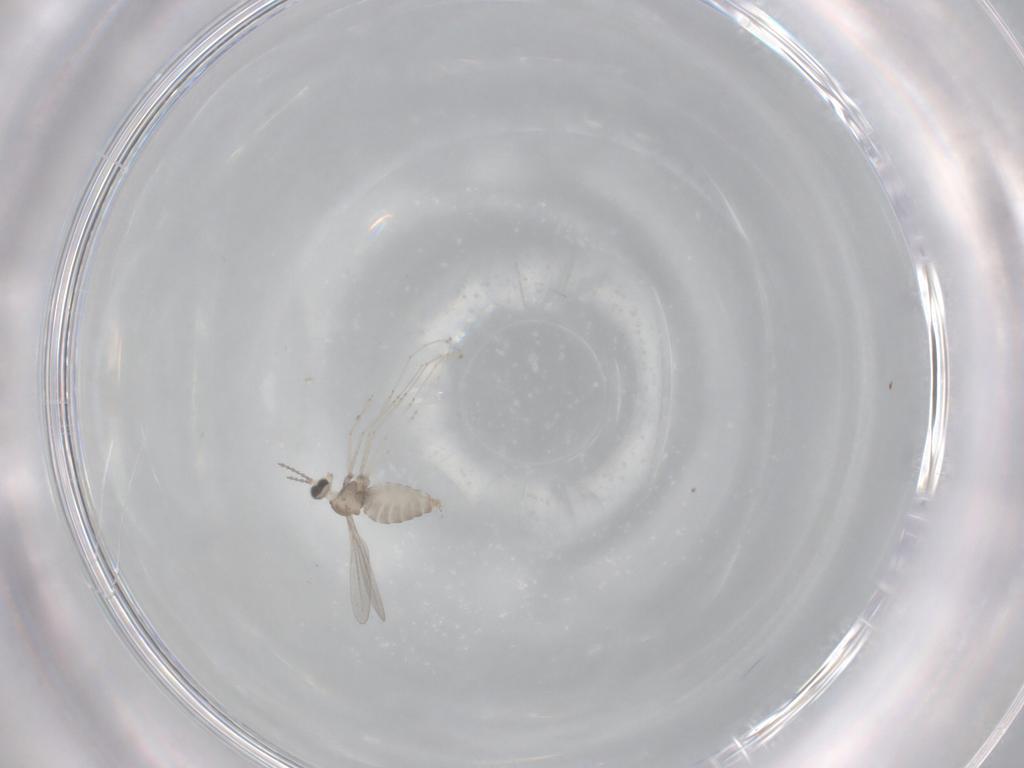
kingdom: Animalia
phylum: Arthropoda
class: Insecta
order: Diptera
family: Cecidomyiidae
